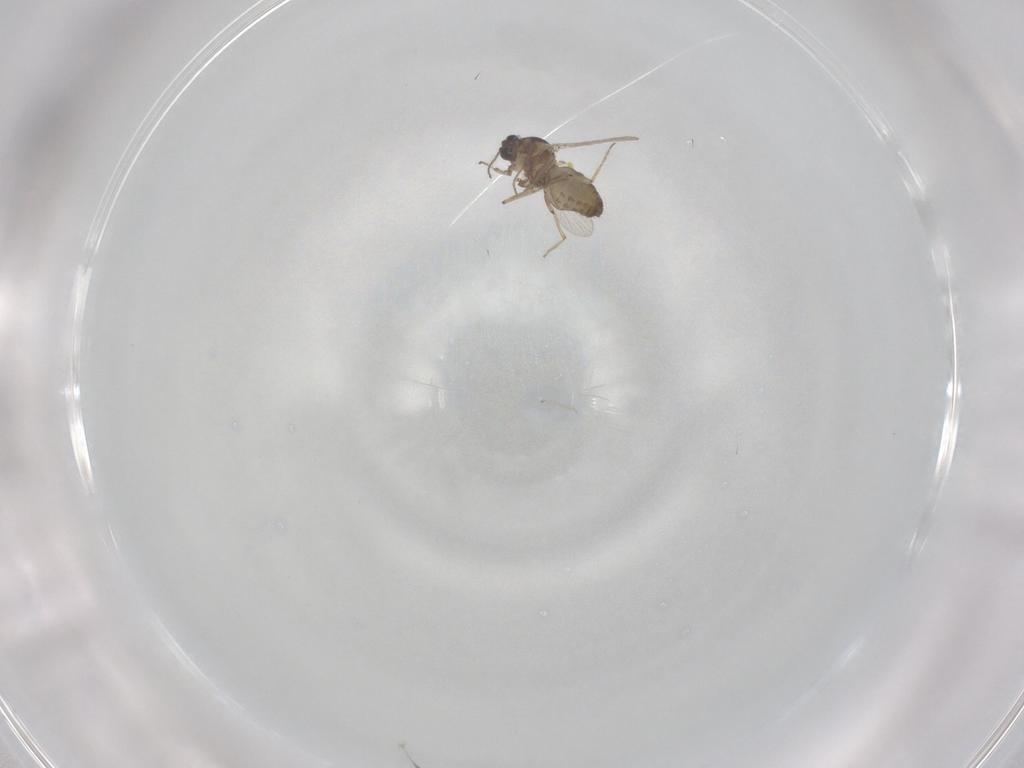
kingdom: Animalia
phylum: Arthropoda
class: Insecta
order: Diptera
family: Ceratopogonidae
